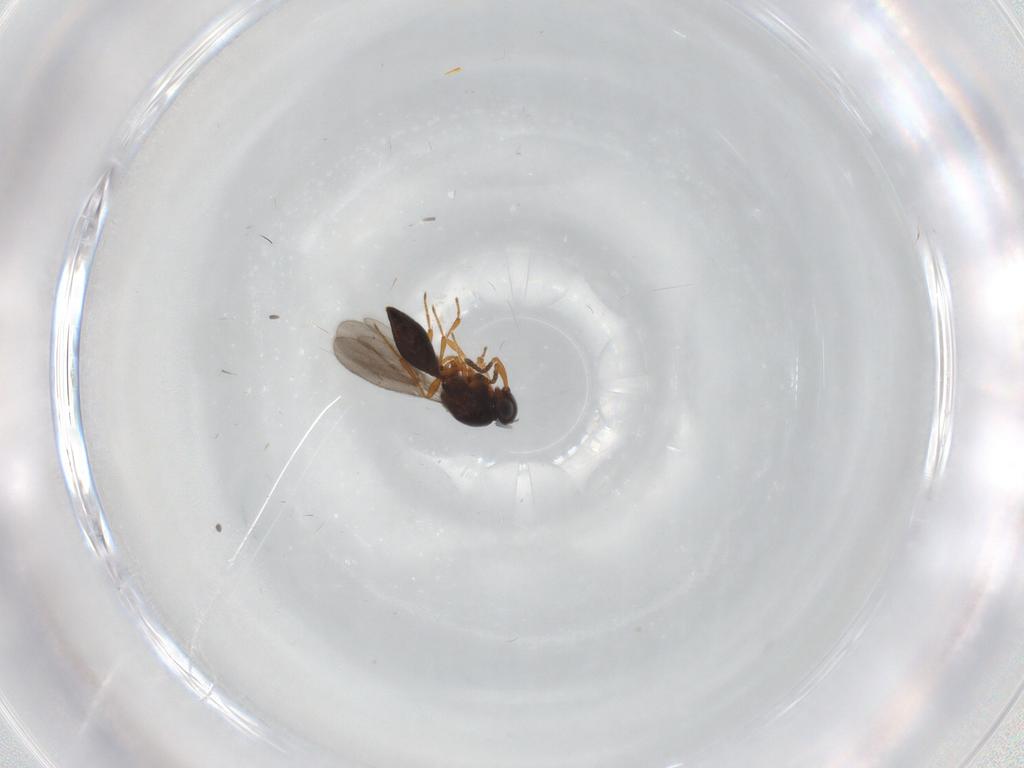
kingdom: Animalia
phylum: Arthropoda
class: Insecta
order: Hymenoptera
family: Platygastridae
